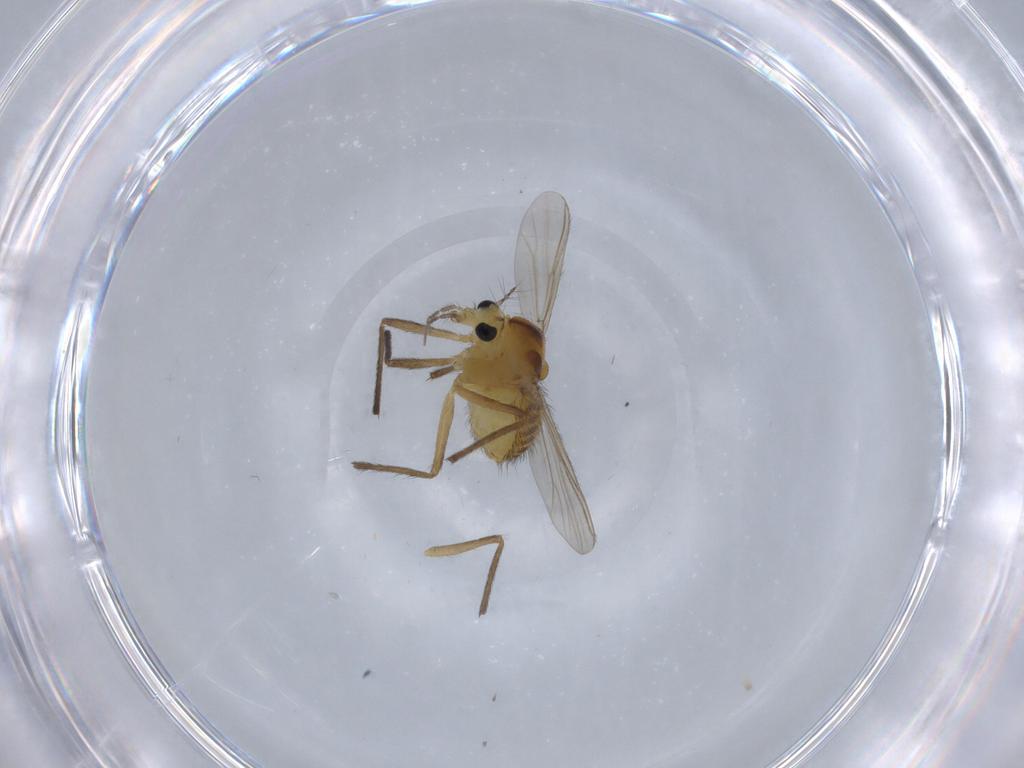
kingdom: Animalia
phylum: Arthropoda
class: Insecta
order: Diptera
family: Chironomidae
